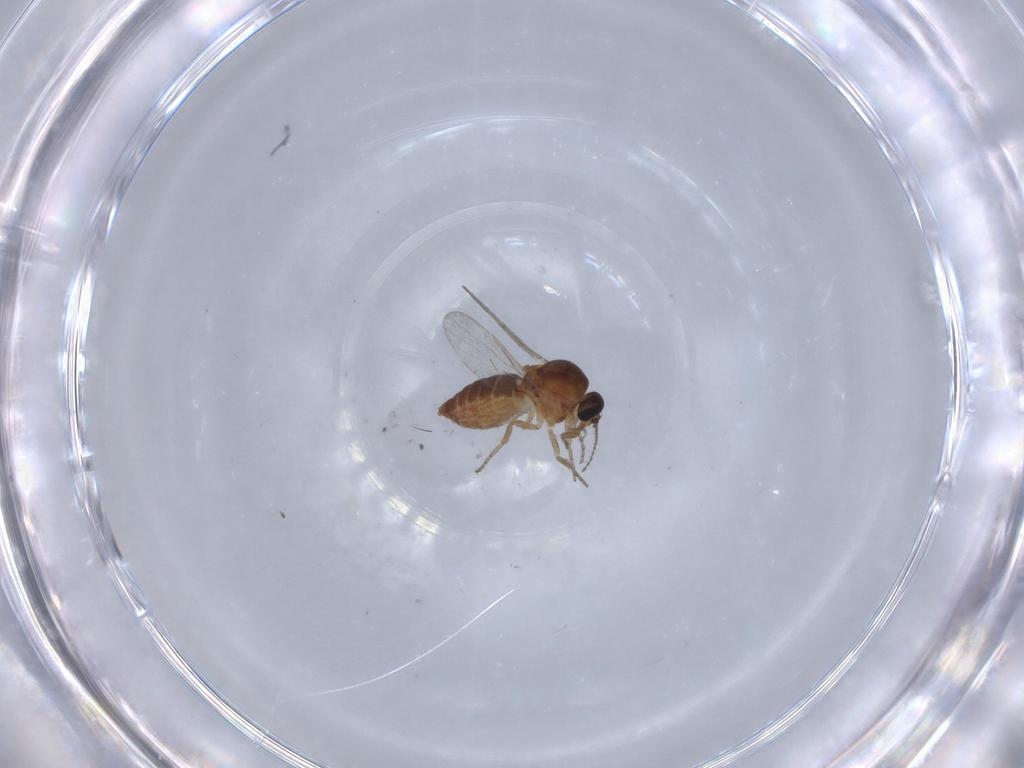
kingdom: Animalia
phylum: Arthropoda
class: Insecta
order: Diptera
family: Ceratopogonidae
